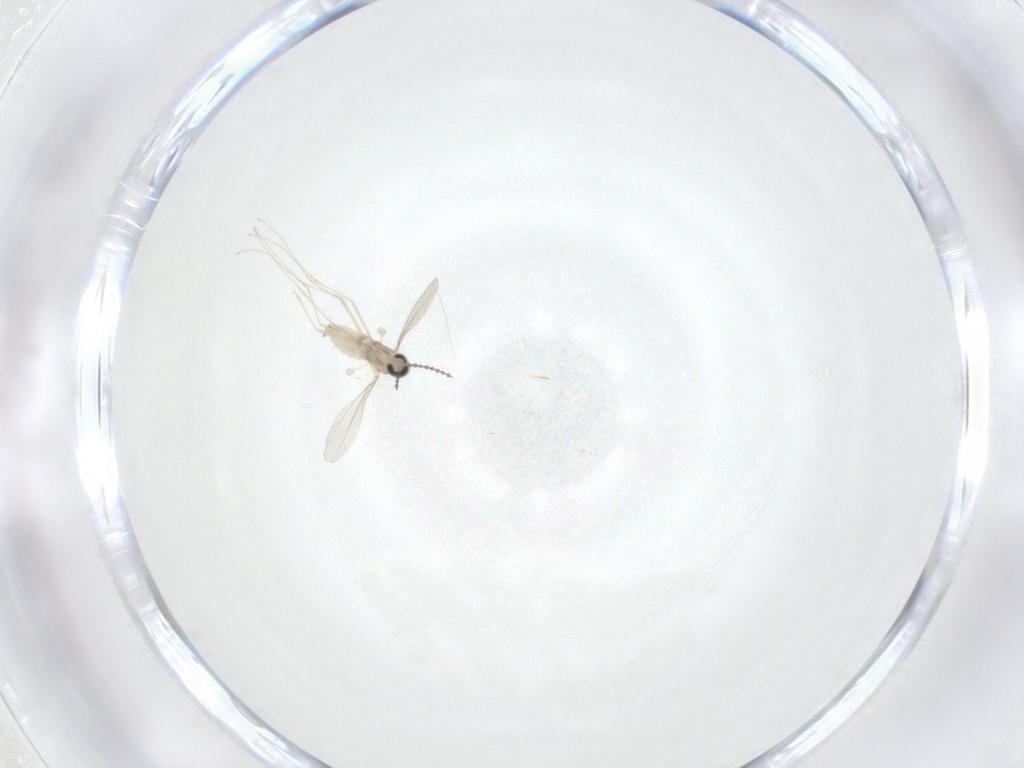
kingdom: Animalia
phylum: Arthropoda
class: Insecta
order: Diptera
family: Cecidomyiidae
